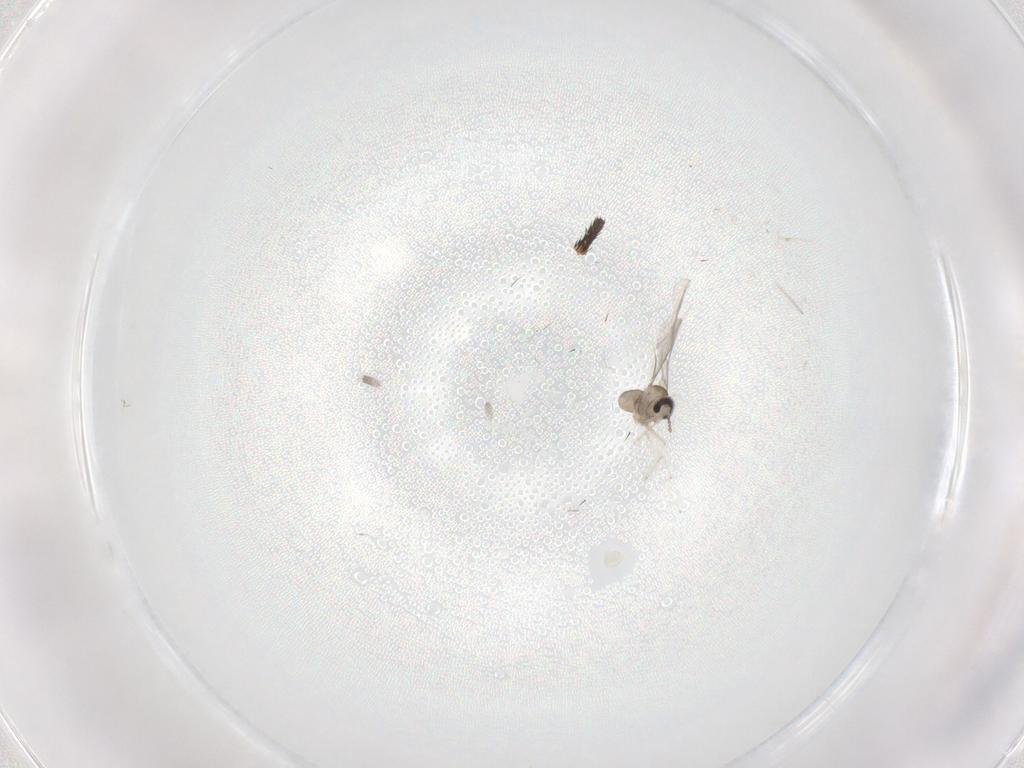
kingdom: Animalia
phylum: Arthropoda
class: Insecta
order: Diptera
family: Keroplatidae
